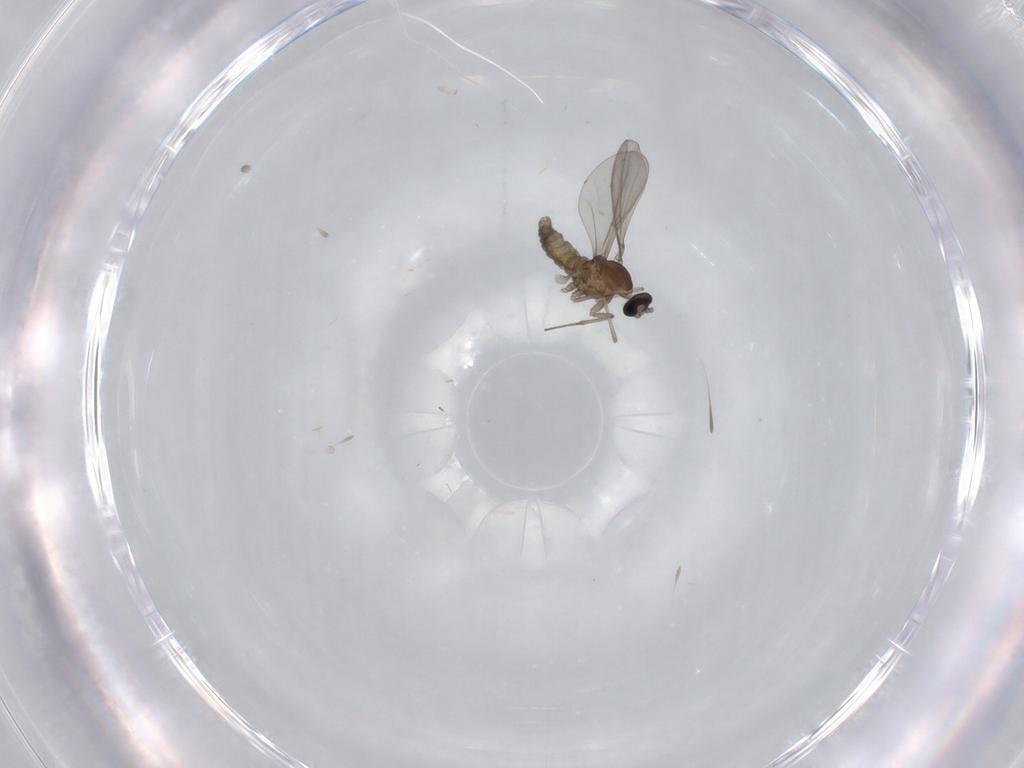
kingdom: Animalia
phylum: Arthropoda
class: Insecta
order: Diptera
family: Cecidomyiidae
